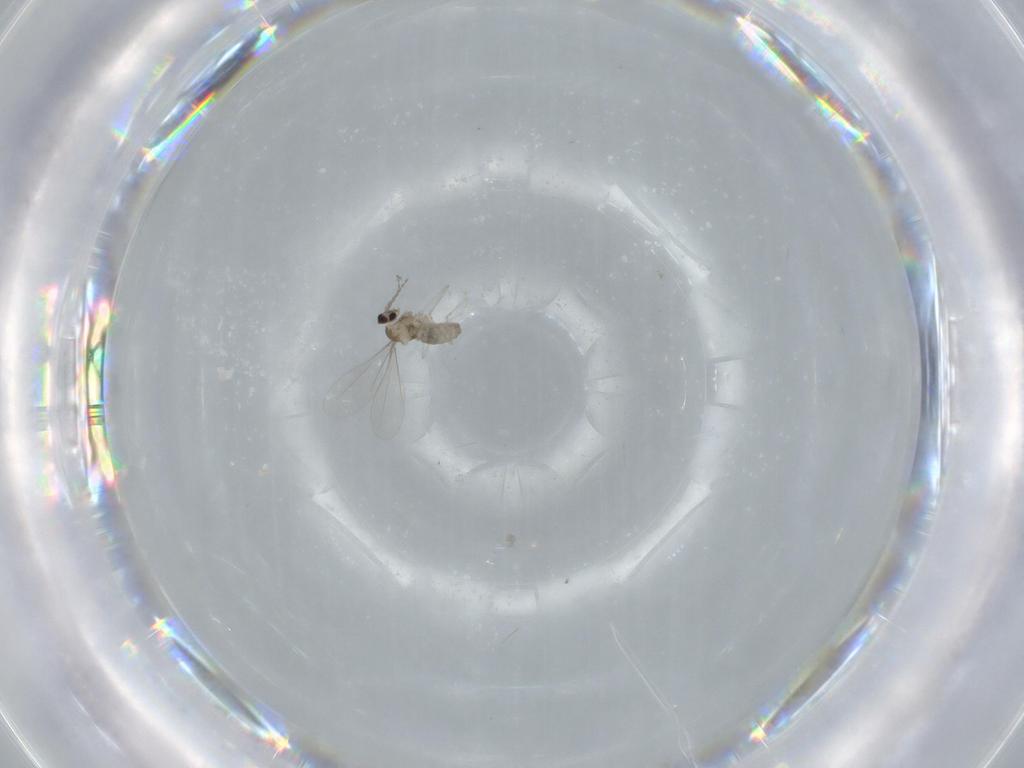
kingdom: Animalia
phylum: Arthropoda
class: Insecta
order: Diptera
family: Cecidomyiidae
